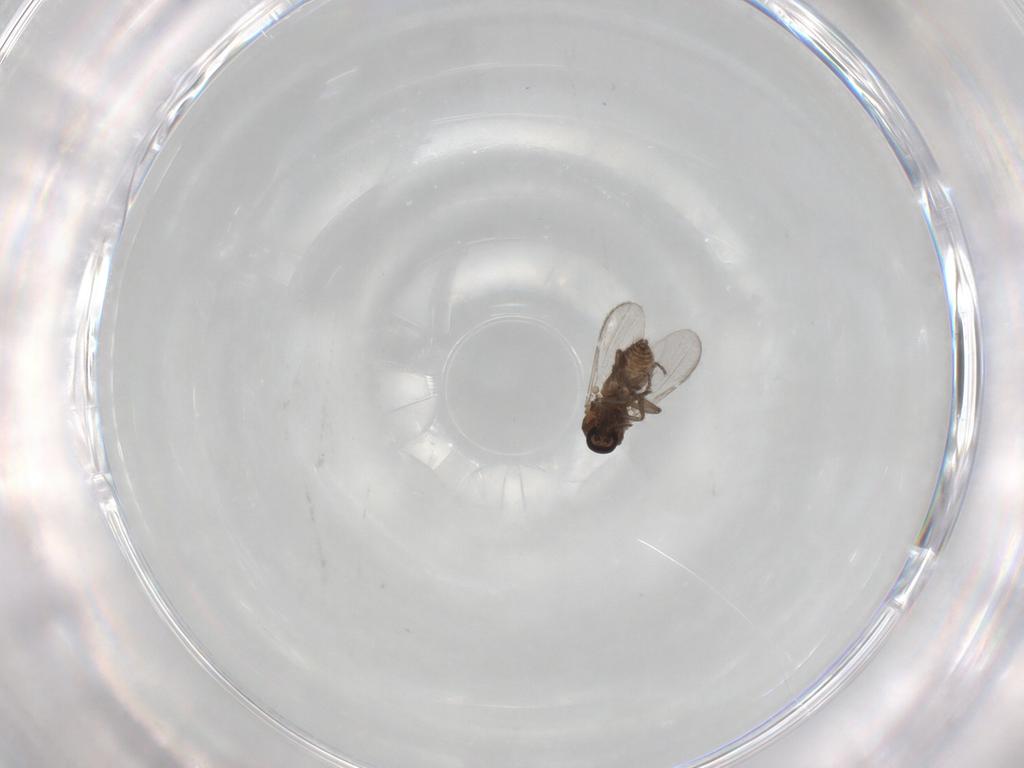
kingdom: Animalia
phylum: Arthropoda
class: Insecta
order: Diptera
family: Ceratopogonidae
